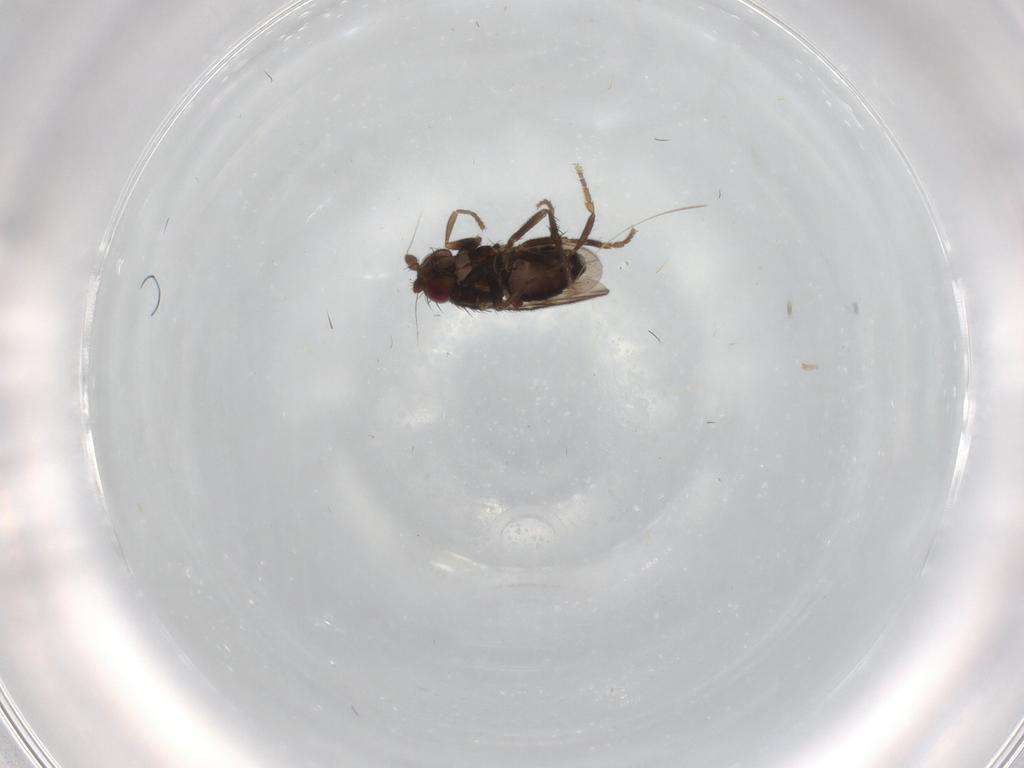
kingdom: Animalia
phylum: Arthropoda
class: Insecta
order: Diptera
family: Sphaeroceridae
